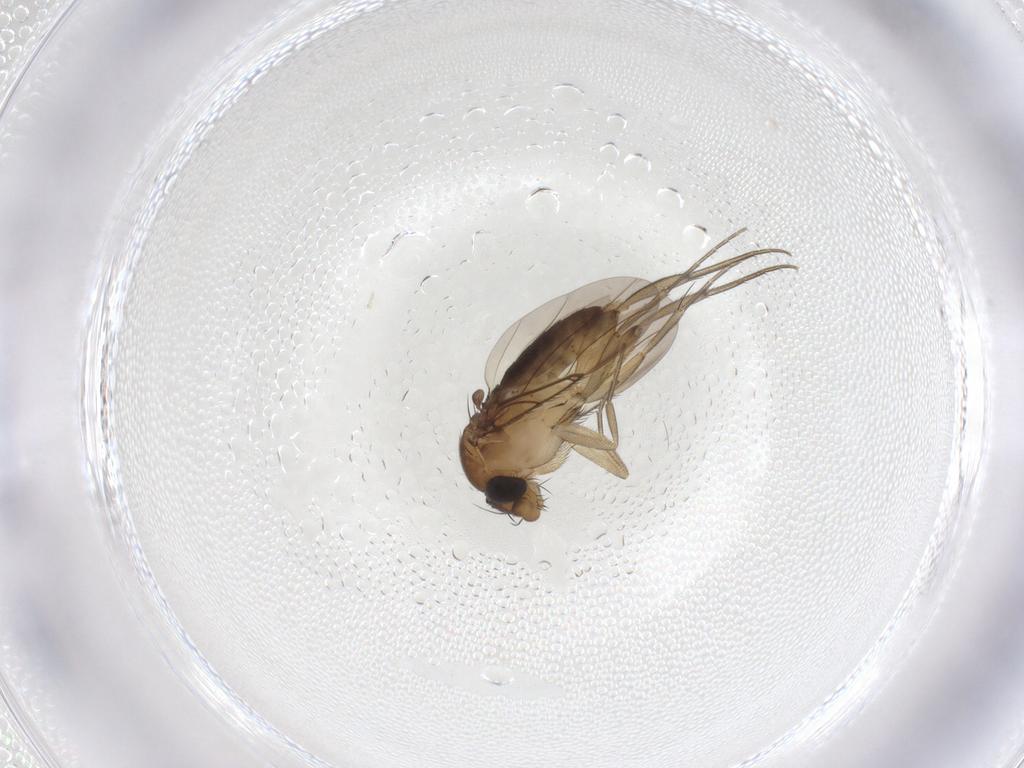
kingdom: Animalia
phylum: Arthropoda
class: Insecta
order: Diptera
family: Phoridae
